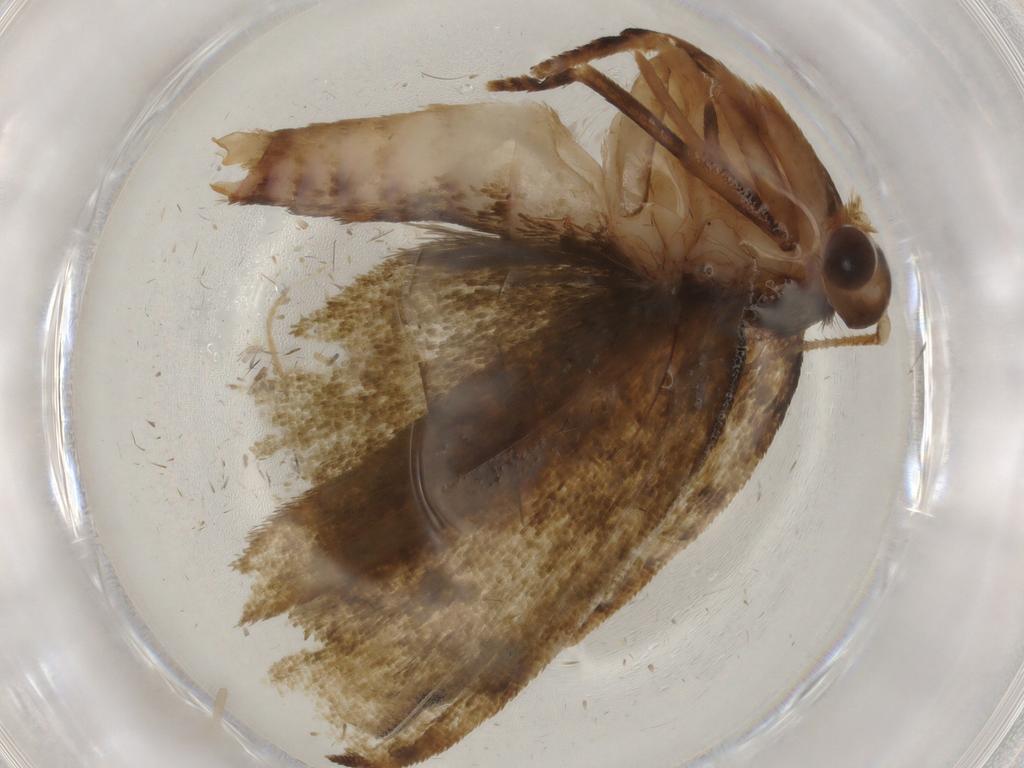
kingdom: Animalia
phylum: Arthropoda
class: Insecta
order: Lepidoptera
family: Geometridae
